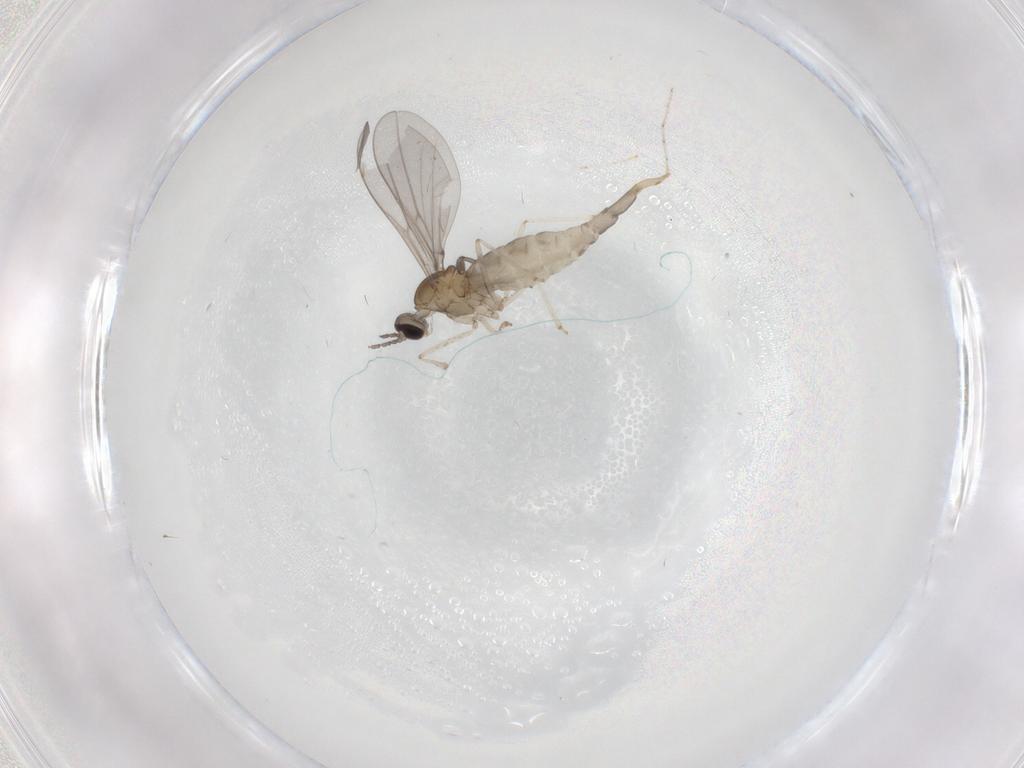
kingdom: Animalia
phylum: Arthropoda
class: Insecta
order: Diptera
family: Cecidomyiidae
